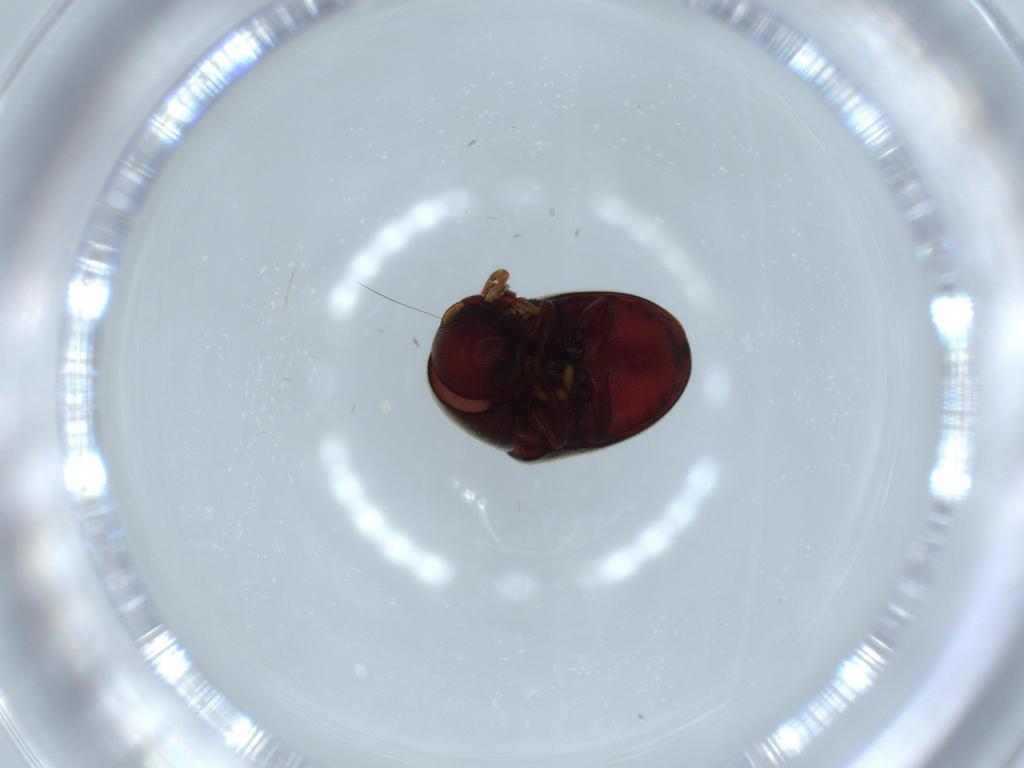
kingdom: Animalia
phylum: Arthropoda
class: Insecta
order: Coleoptera
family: Ptinidae
